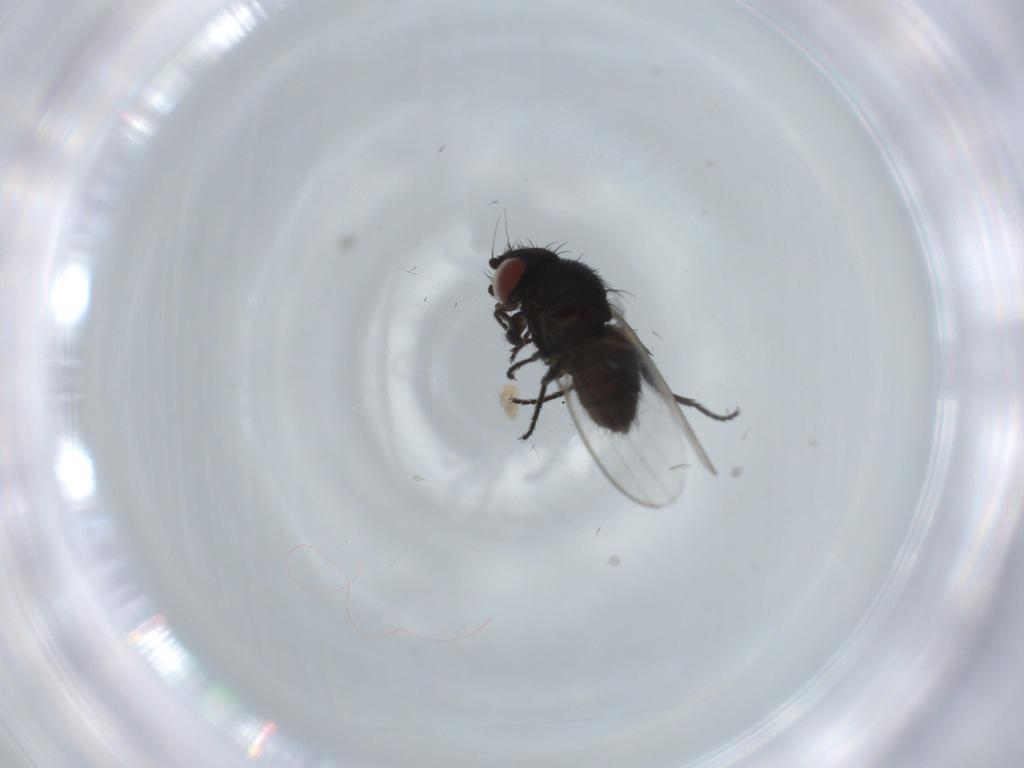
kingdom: Animalia
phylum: Arthropoda
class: Insecta
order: Diptera
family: Milichiidae
